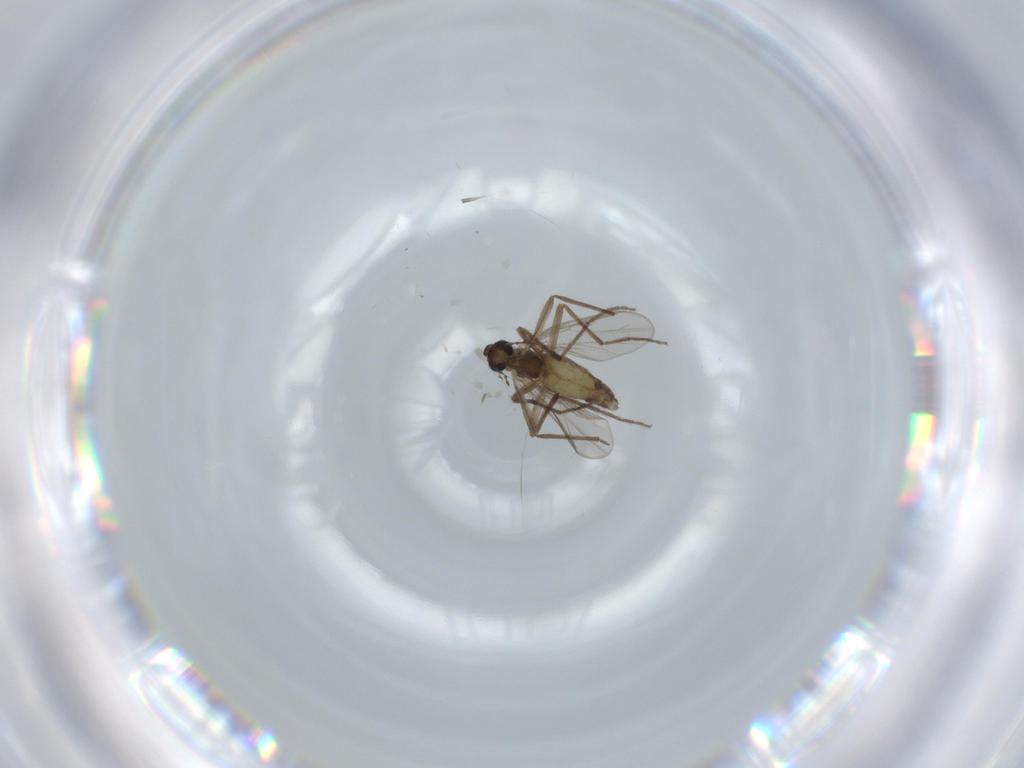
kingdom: Animalia
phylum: Arthropoda
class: Insecta
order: Diptera
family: Chironomidae
